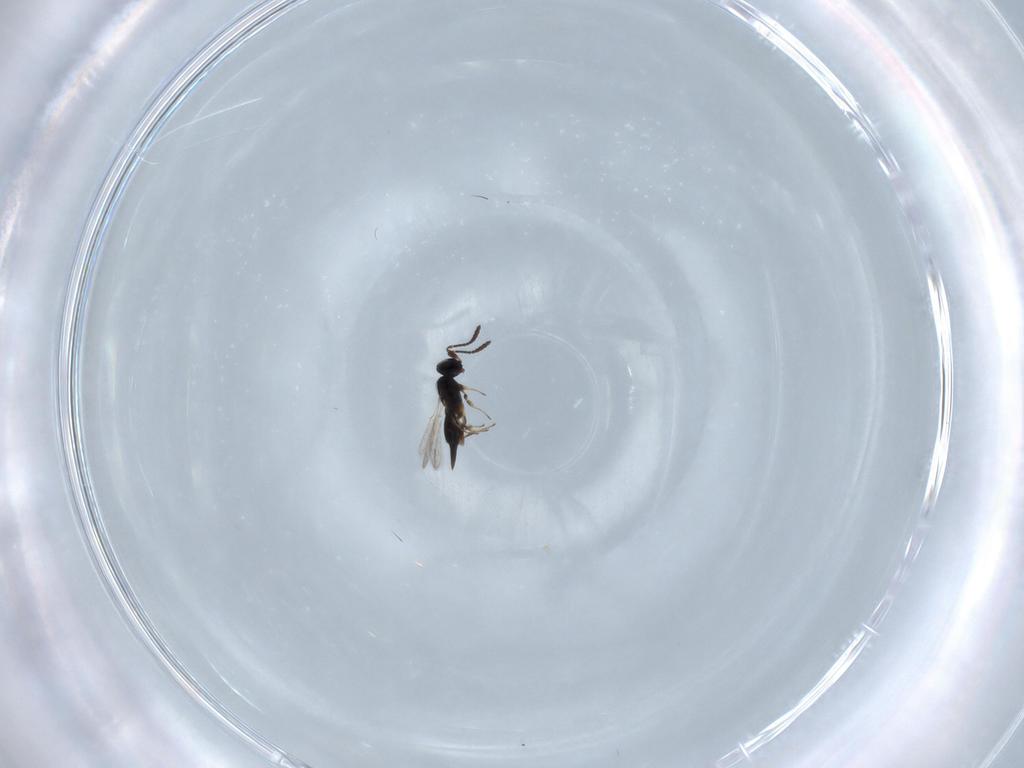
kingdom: Animalia
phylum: Arthropoda
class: Insecta
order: Hymenoptera
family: Scelionidae
